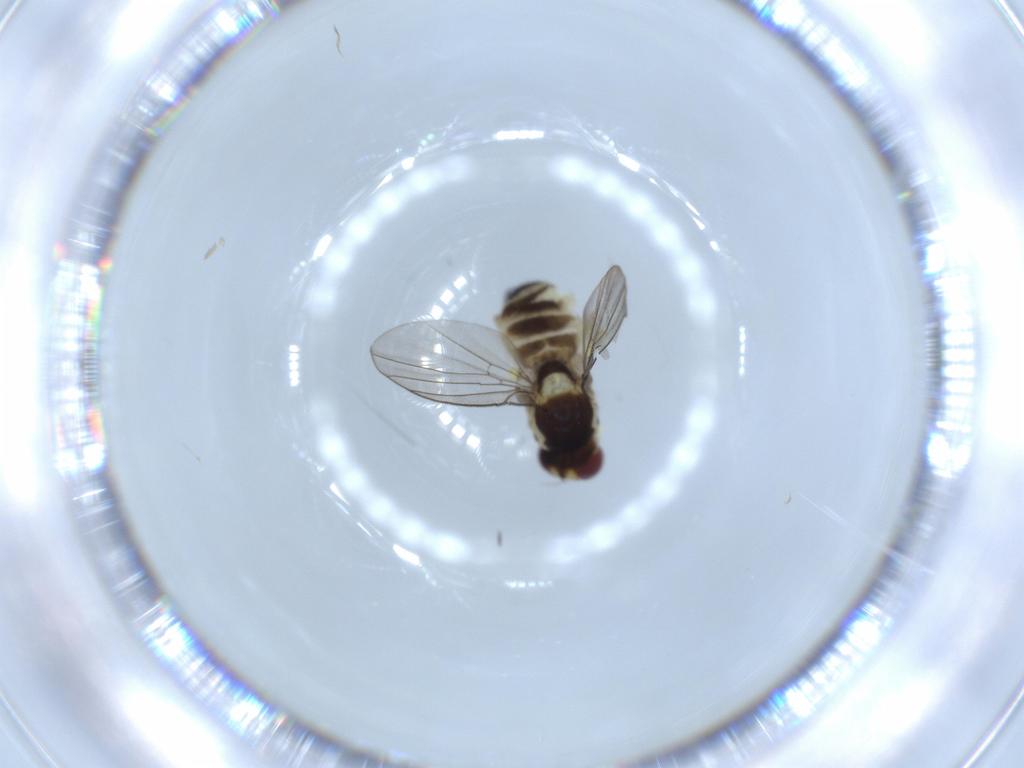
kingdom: Animalia
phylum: Arthropoda
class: Insecta
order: Diptera
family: Agromyzidae
